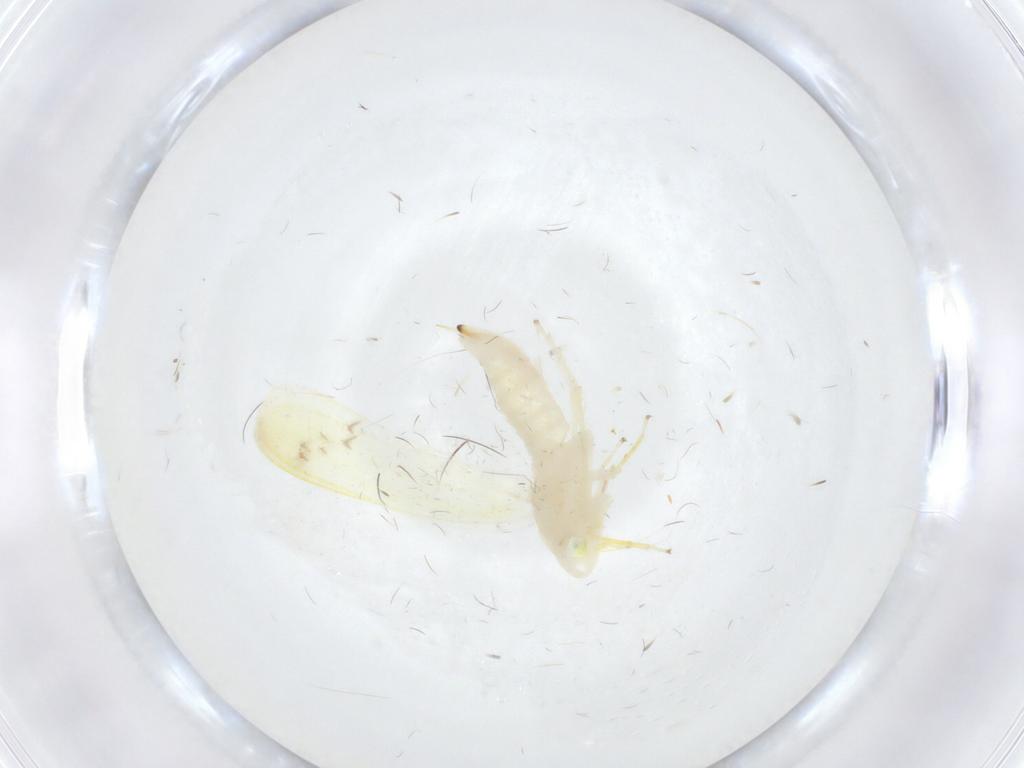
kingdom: Animalia
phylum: Arthropoda
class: Insecta
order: Hemiptera
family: Cicadellidae
